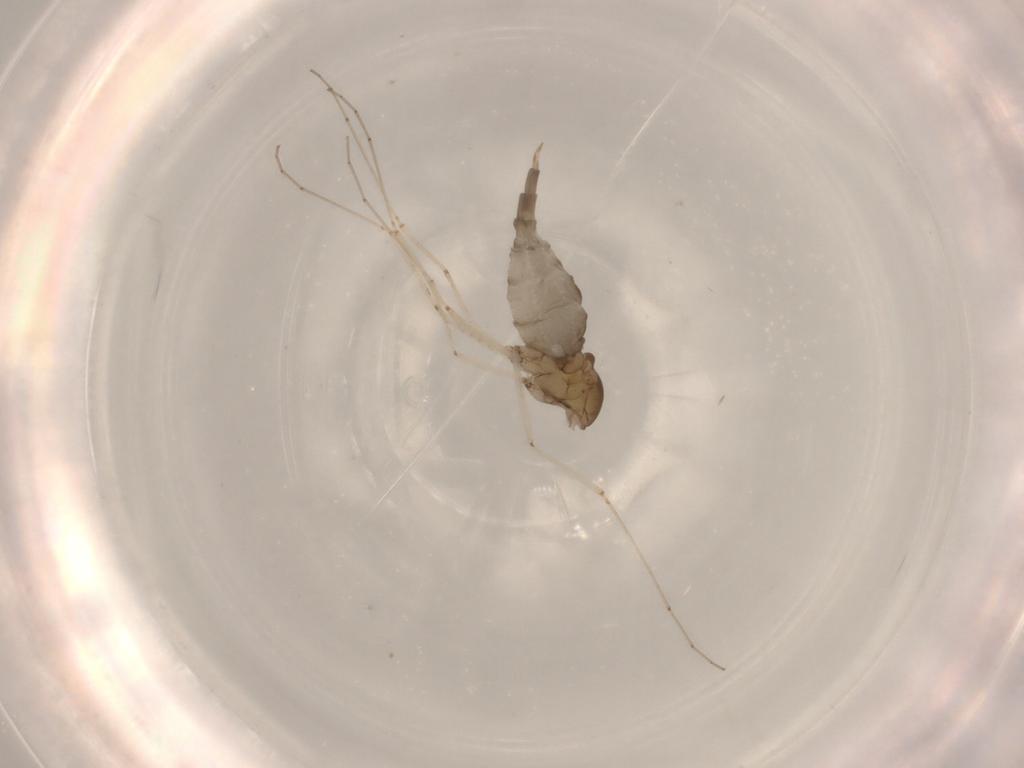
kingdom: Animalia
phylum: Arthropoda
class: Insecta
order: Diptera
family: Cecidomyiidae
